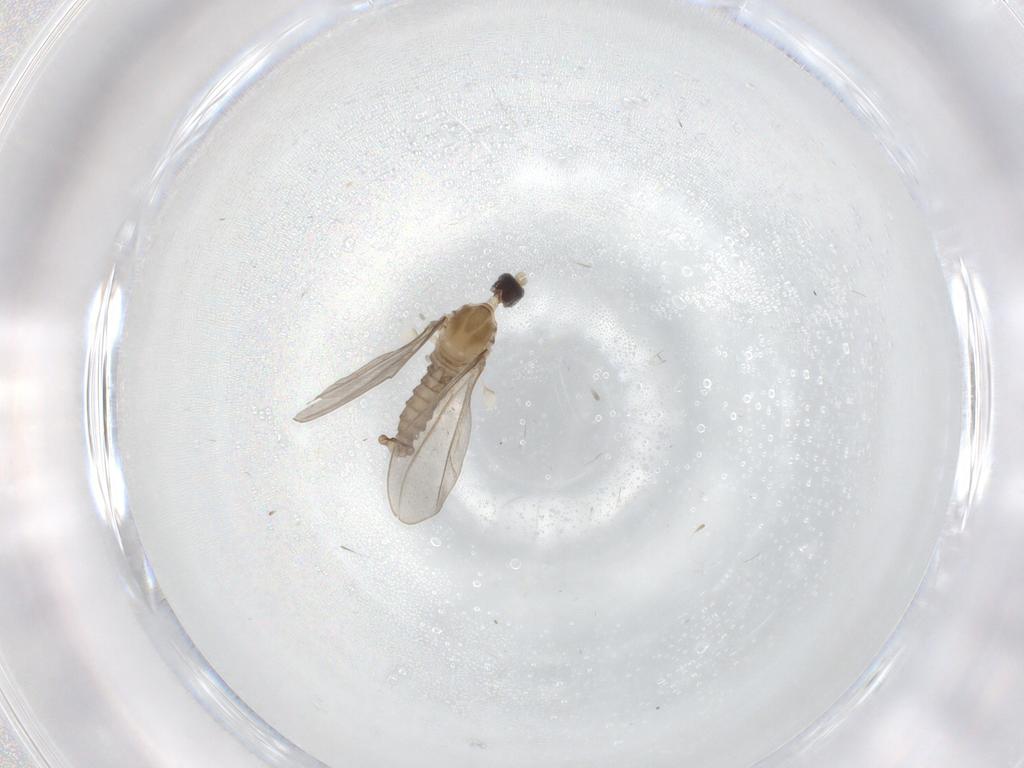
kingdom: Animalia
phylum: Arthropoda
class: Insecta
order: Diptera
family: Cecidomyiidae
